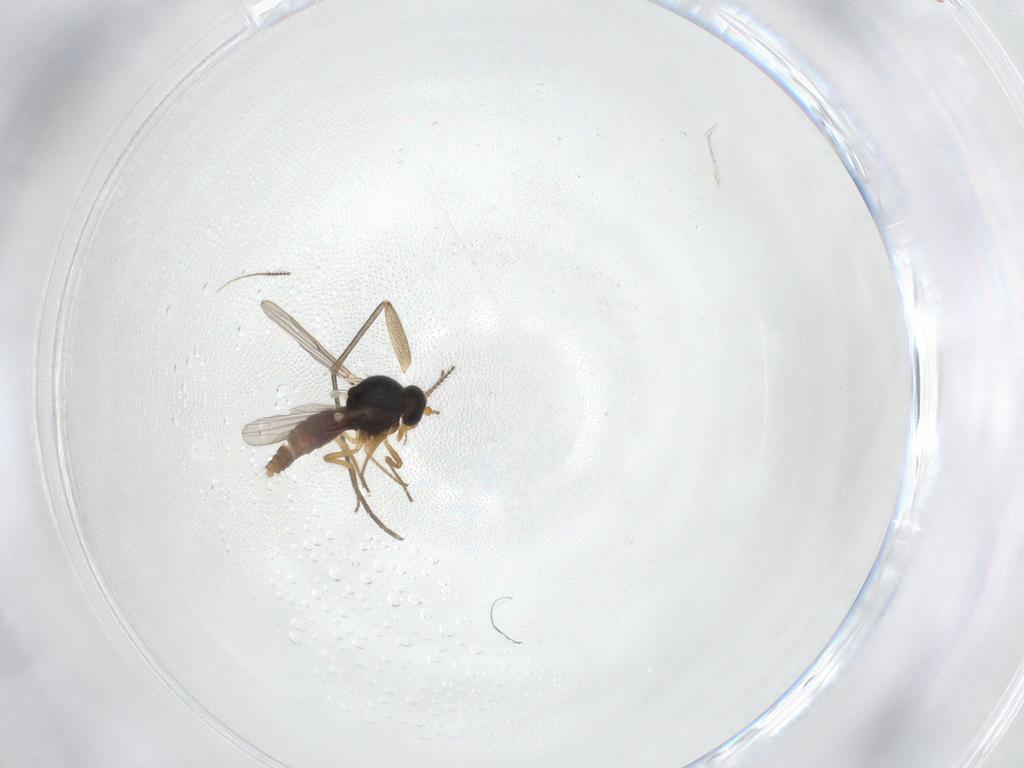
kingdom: Animalia
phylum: Arthropoda
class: Insecta
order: Diptera
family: Ceratopogonidae
